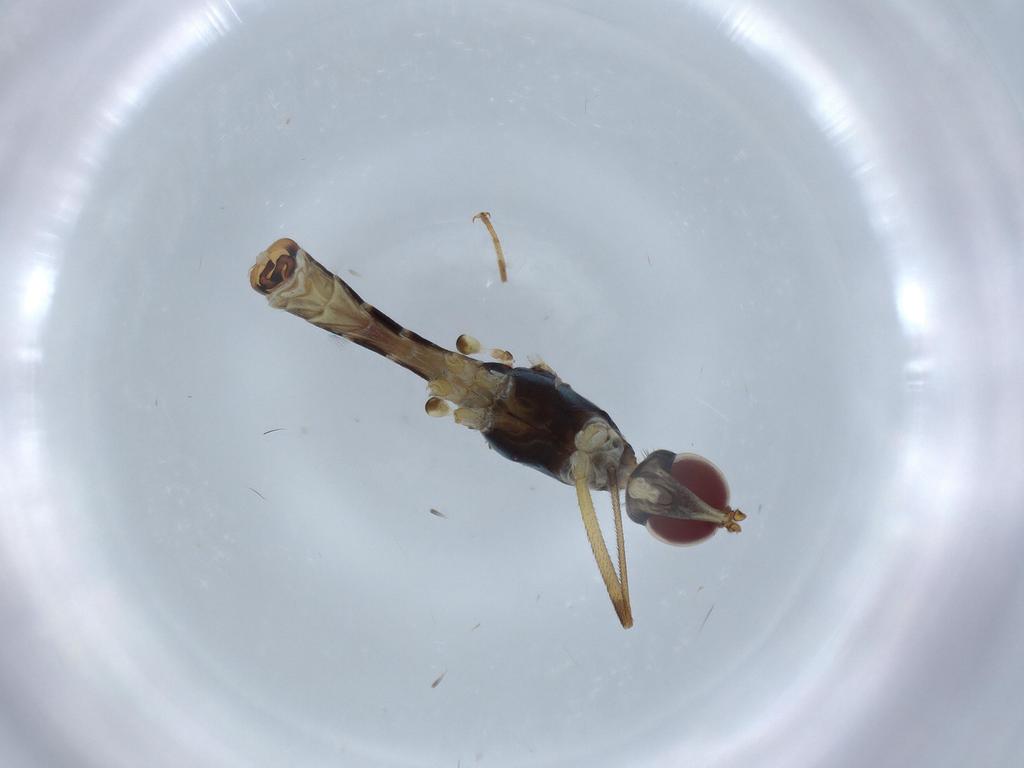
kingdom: Animalia
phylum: Arthropoda
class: Insecta
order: Diptera
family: Micropezidae
